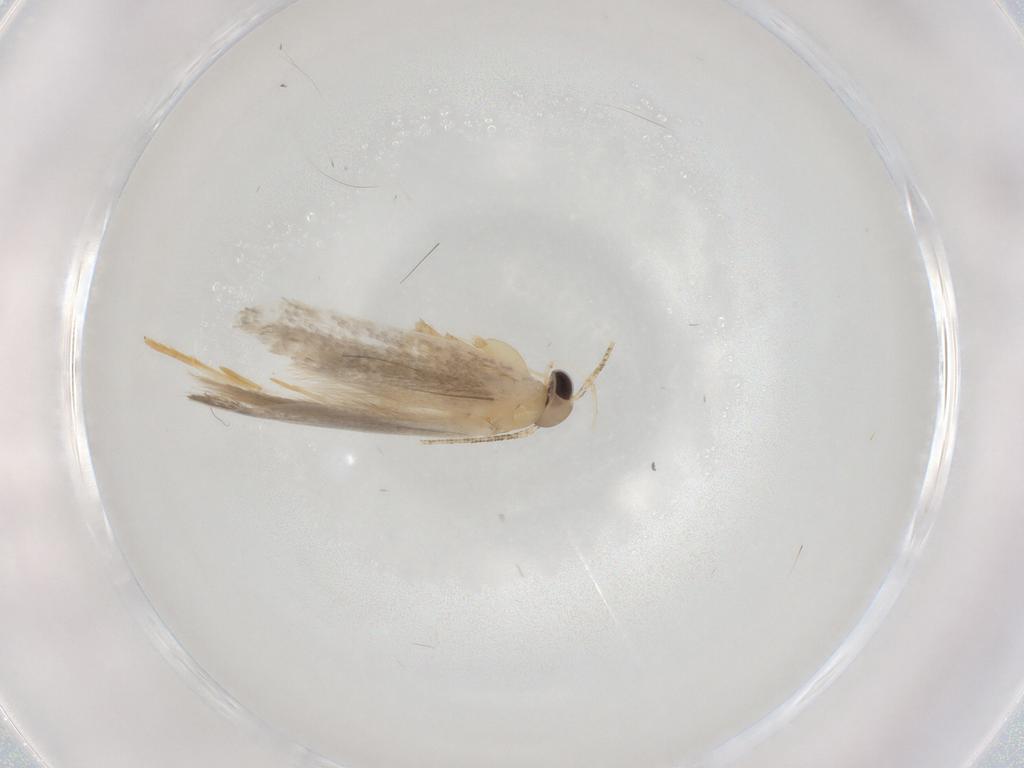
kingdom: Animalia
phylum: Arthropoda
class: Insecta
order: Lepidoptera
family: Autostichidae
